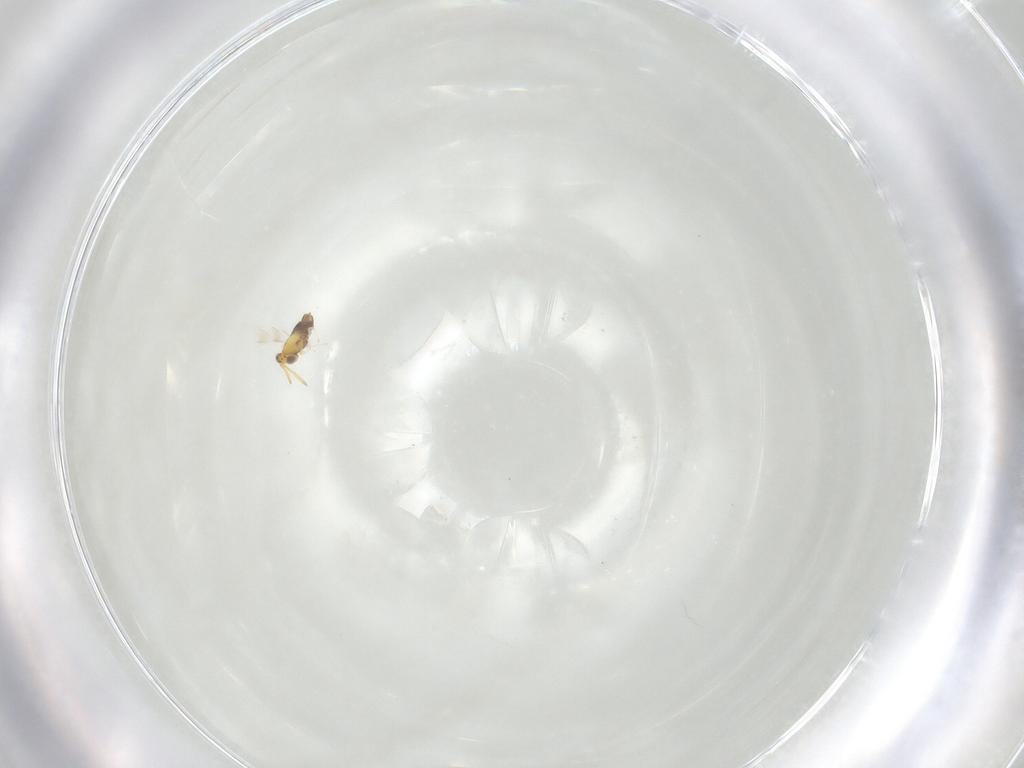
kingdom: Animalia
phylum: Arthropoda
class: Insecta
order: Hymenoptera
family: Aphelinidae
